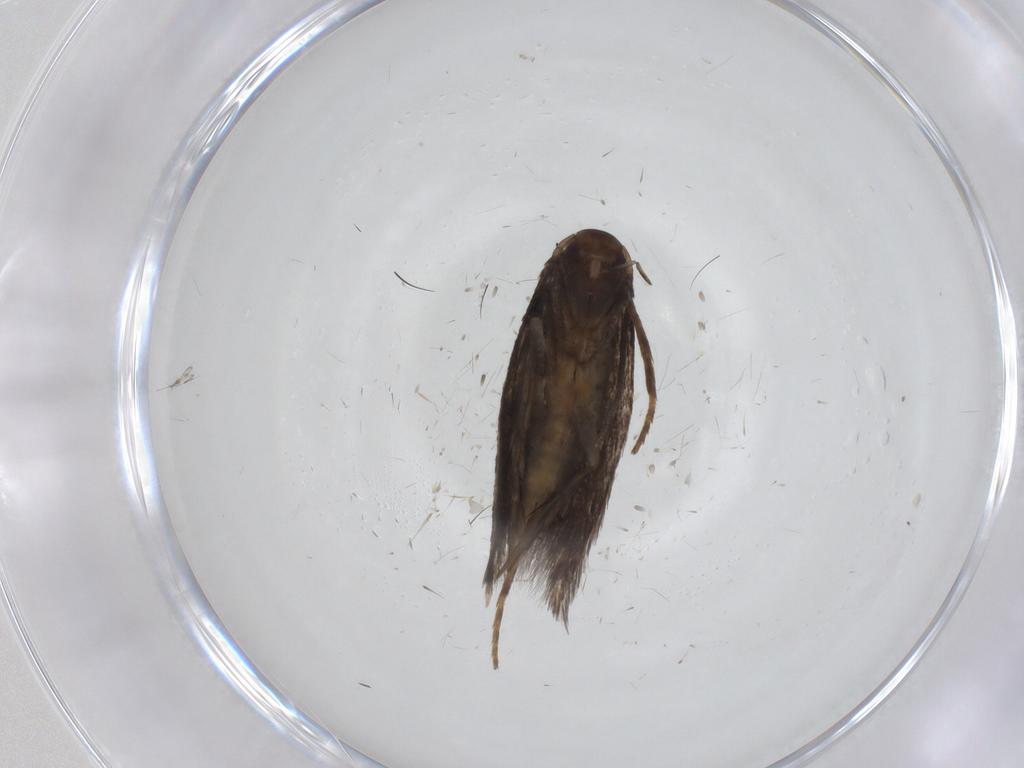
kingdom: Animalia
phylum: Arthropoda
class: Insecta
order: Lepidoptera
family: Elachistidae
